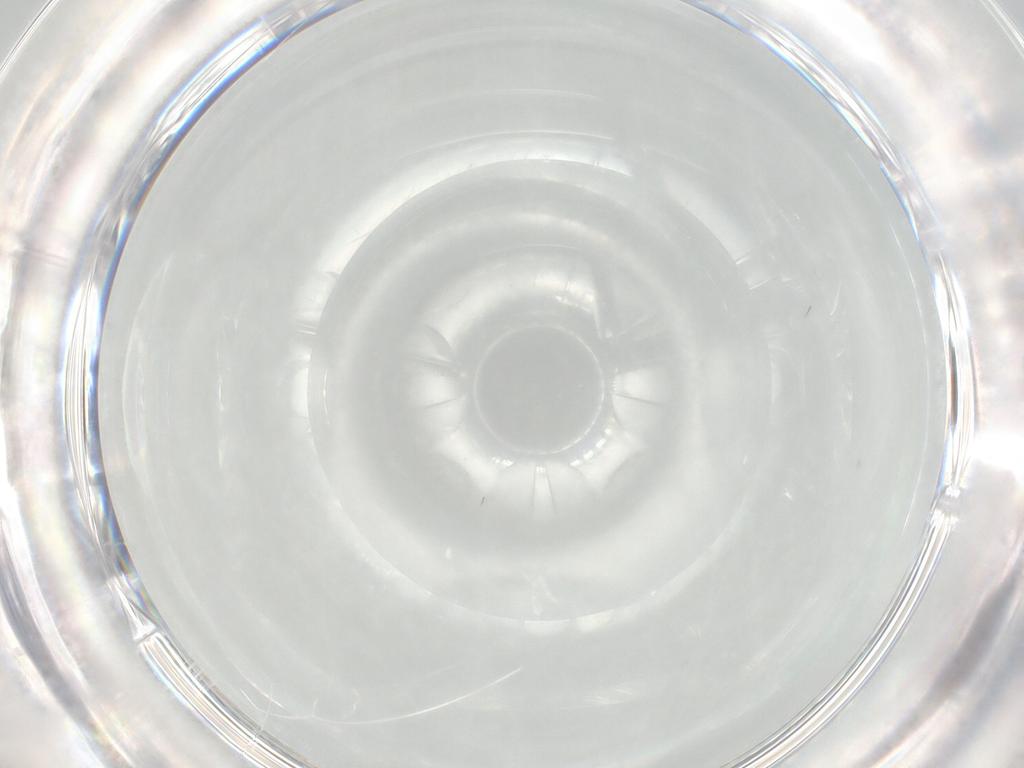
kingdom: Animalia
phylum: Arthropoda
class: Insecta
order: Diptera
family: Chironomidae
